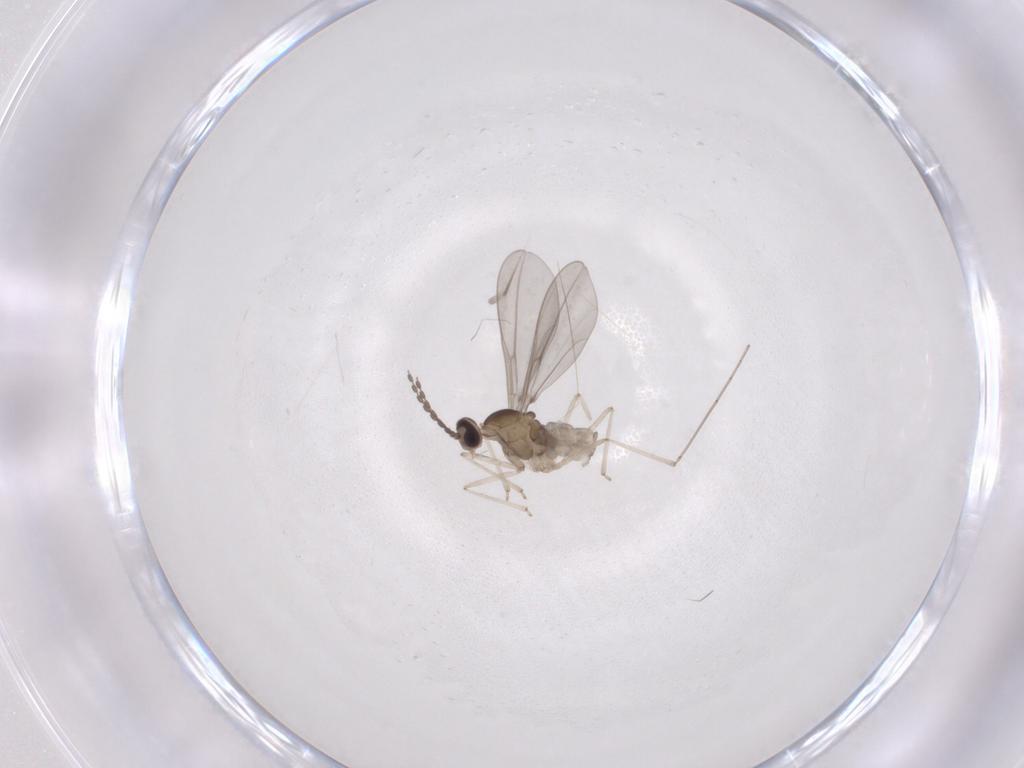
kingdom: Animalia
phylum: Arthropoda
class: Insecta
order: Diptera
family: Cecidomyiidae
